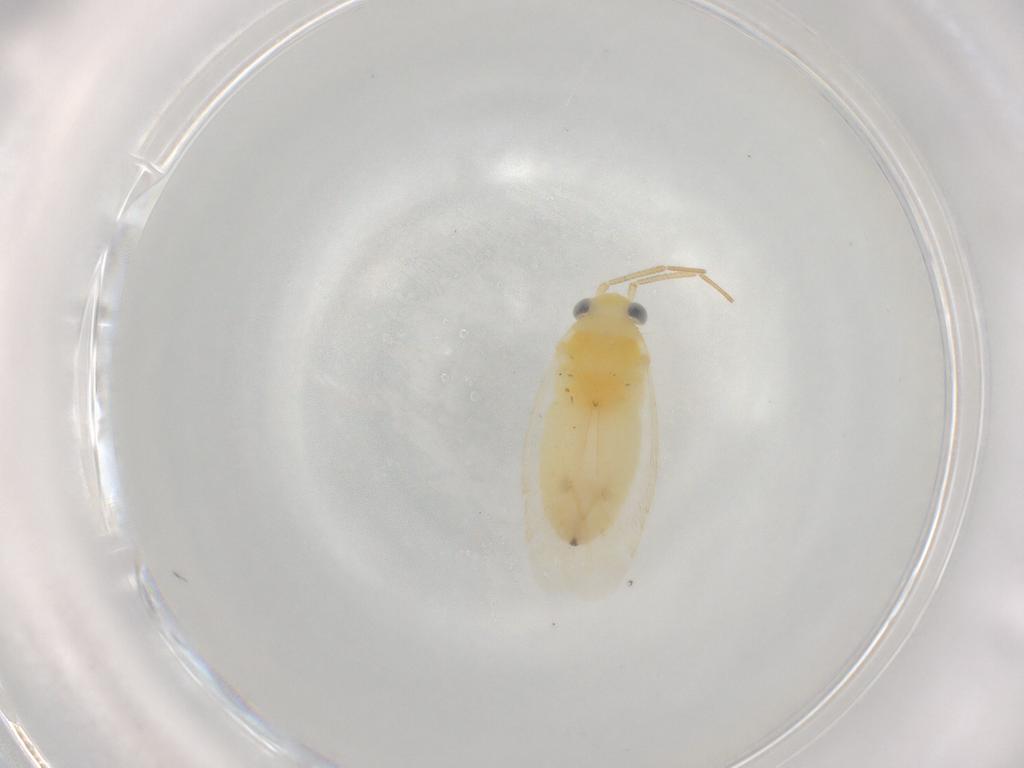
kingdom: Animalia
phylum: Arthropoda
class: Insecta
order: Hemiptera
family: Miridae
